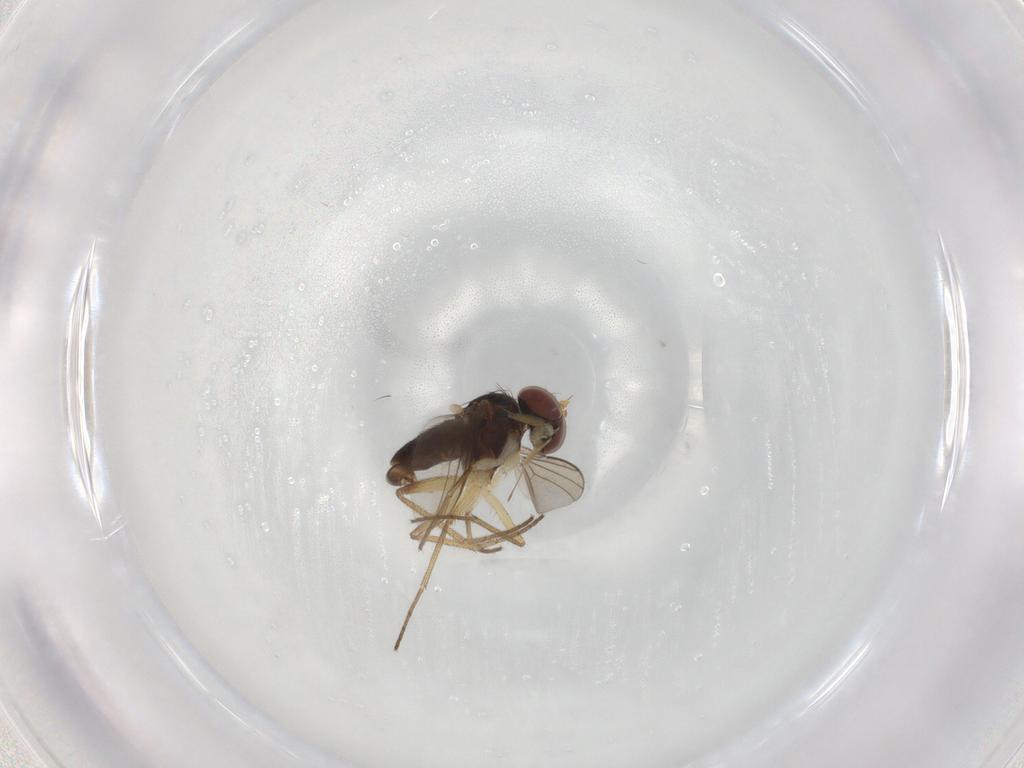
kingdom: Animalia
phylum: Arthropoda
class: Insecta
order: Diptera
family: Dolichopodidae
